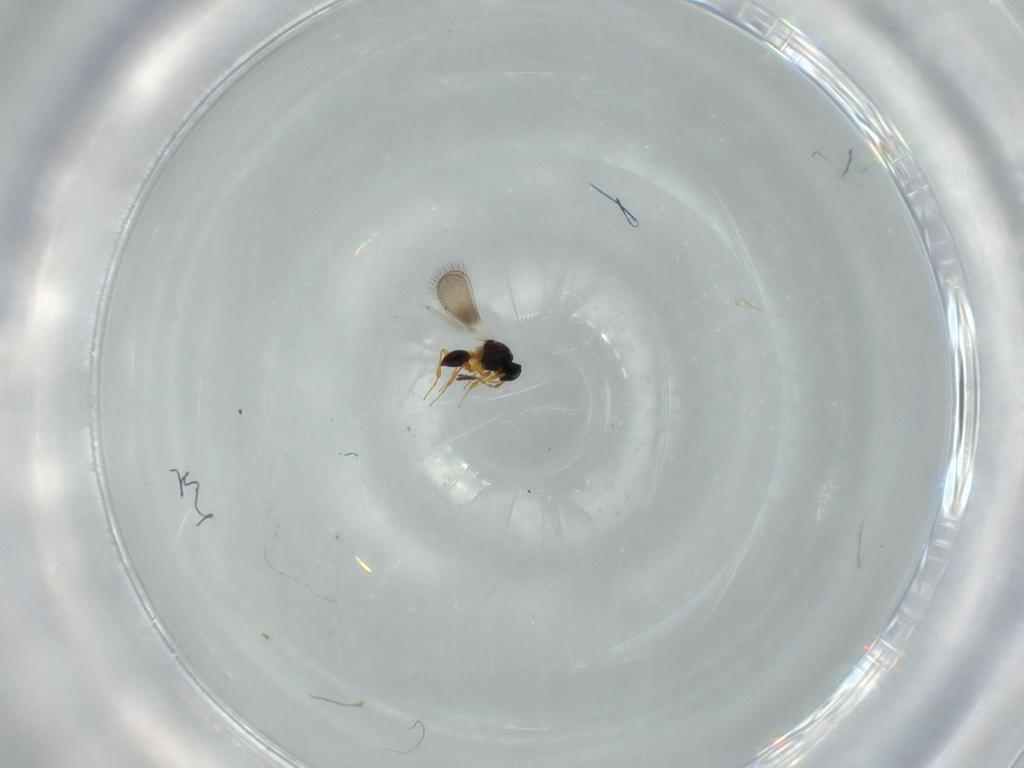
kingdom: Animalia
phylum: Arthropoda
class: Insecta
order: Hymenoptera
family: Platygastridae
